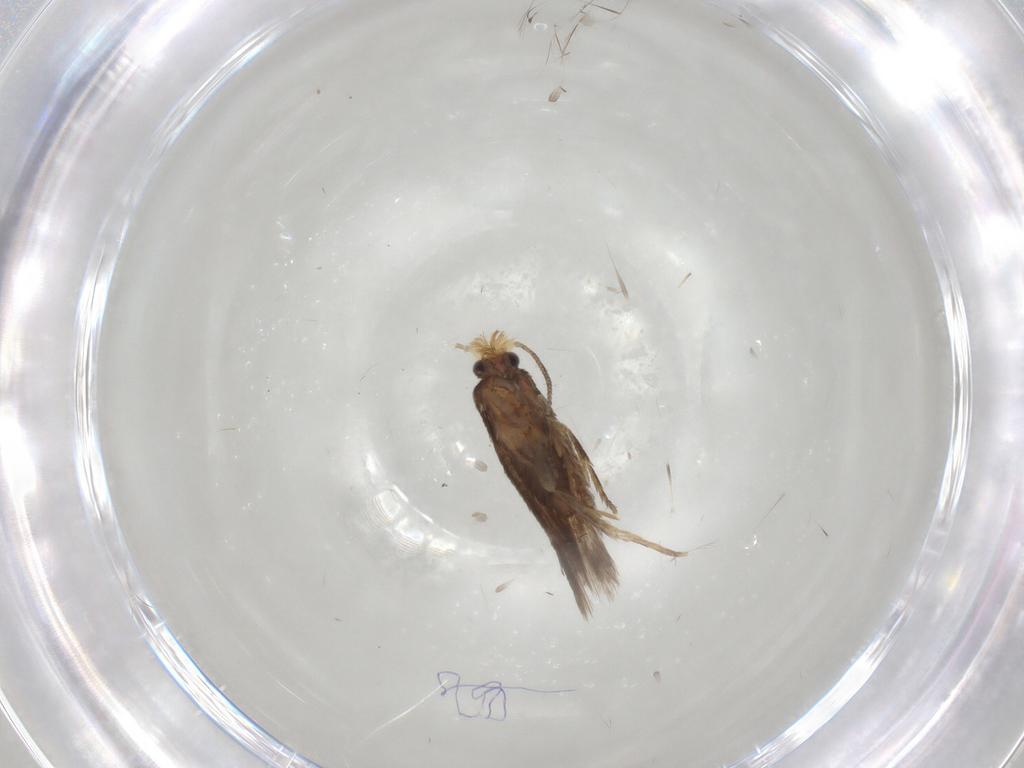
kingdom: Animalia
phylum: Arthropoda
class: Insecta
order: Lepidoptera
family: Nepticulidae
